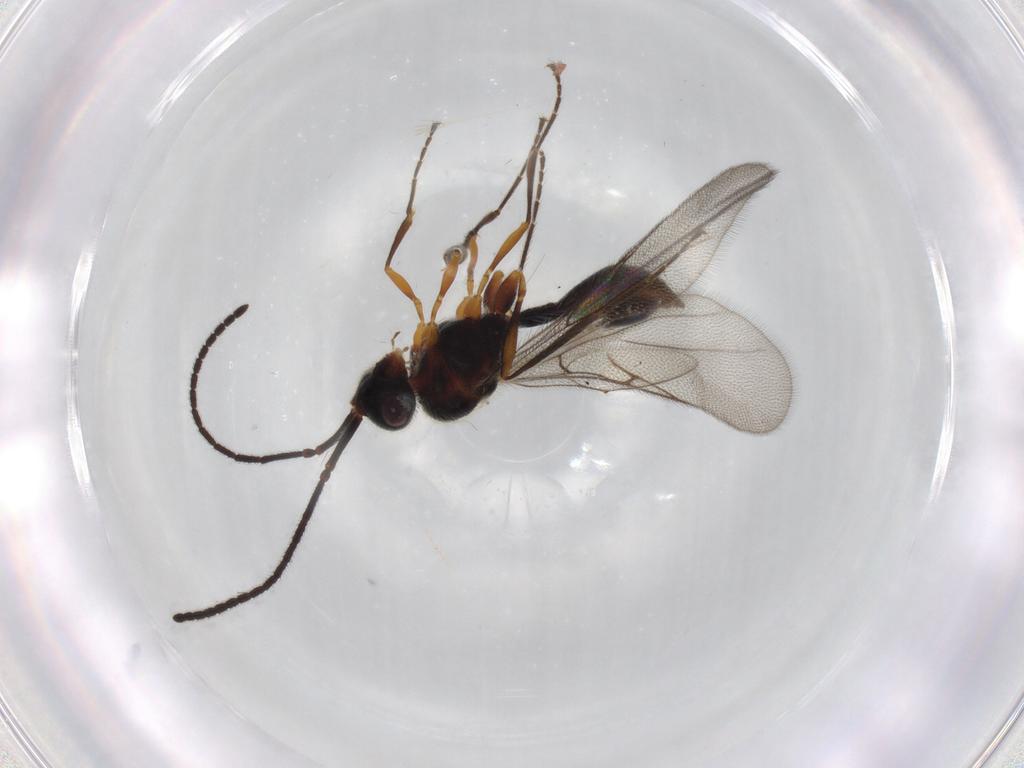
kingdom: Animalia
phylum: Arthropoda
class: Insecta
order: Hymenoptera
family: Diapriidae
